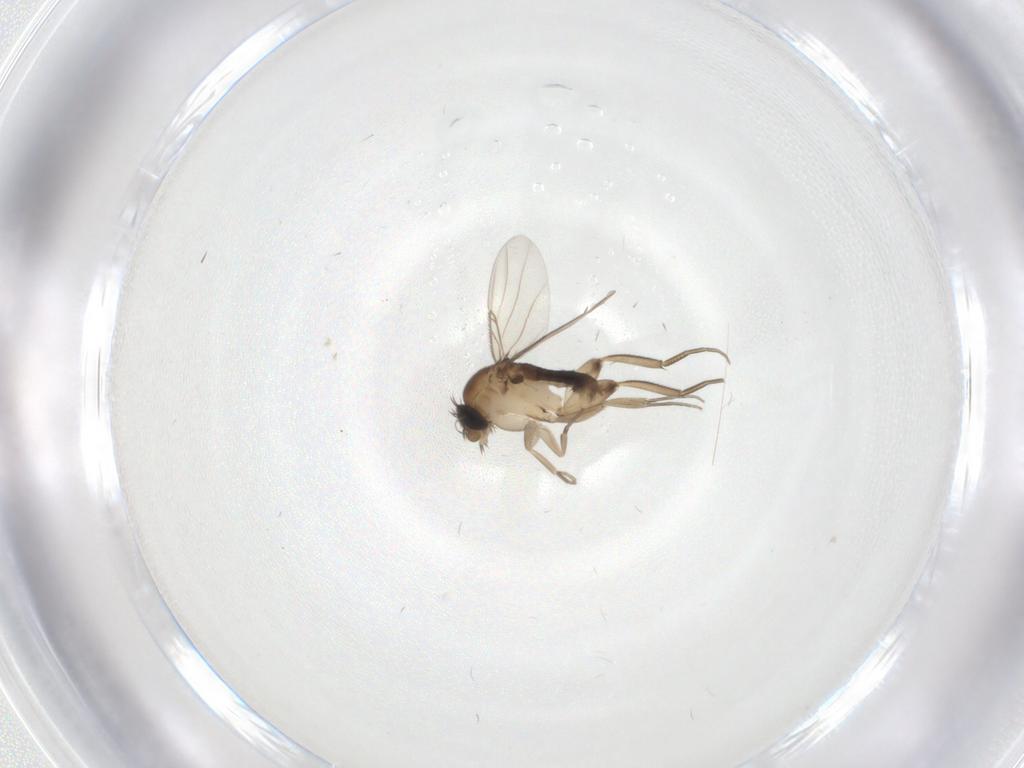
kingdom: Animalia
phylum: Arthropoda
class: Insecta
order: Diptera
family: Phoridae
